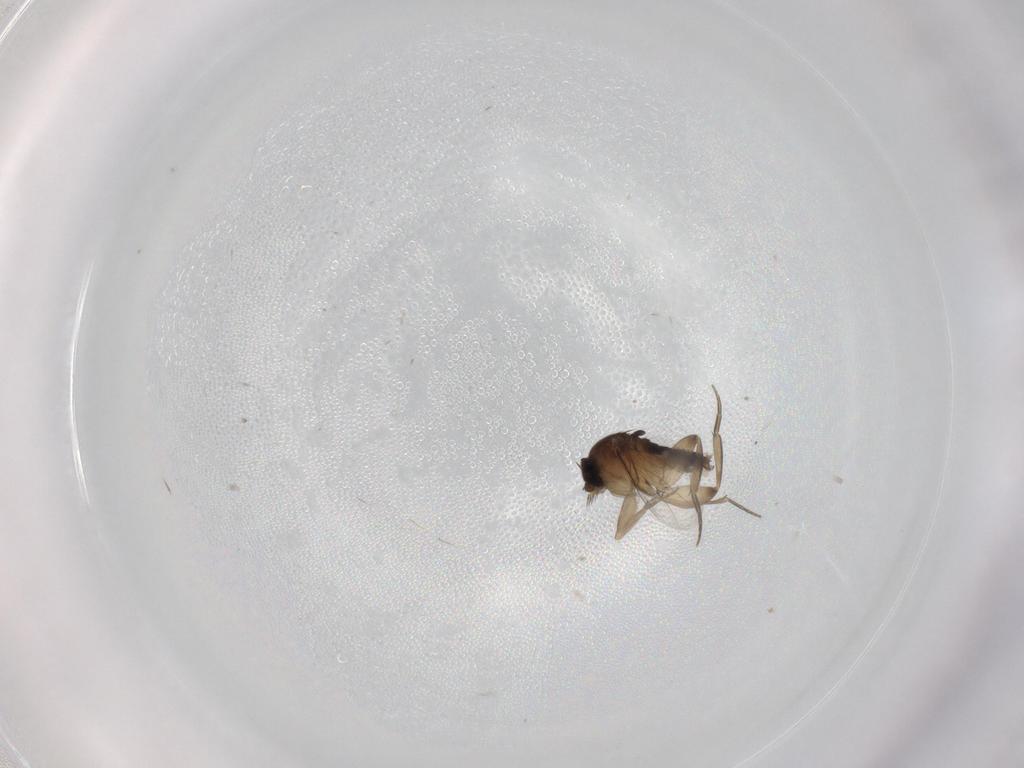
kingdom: Animalia
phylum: Arthropoda
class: Insecta
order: Diptera
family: Phoridae
